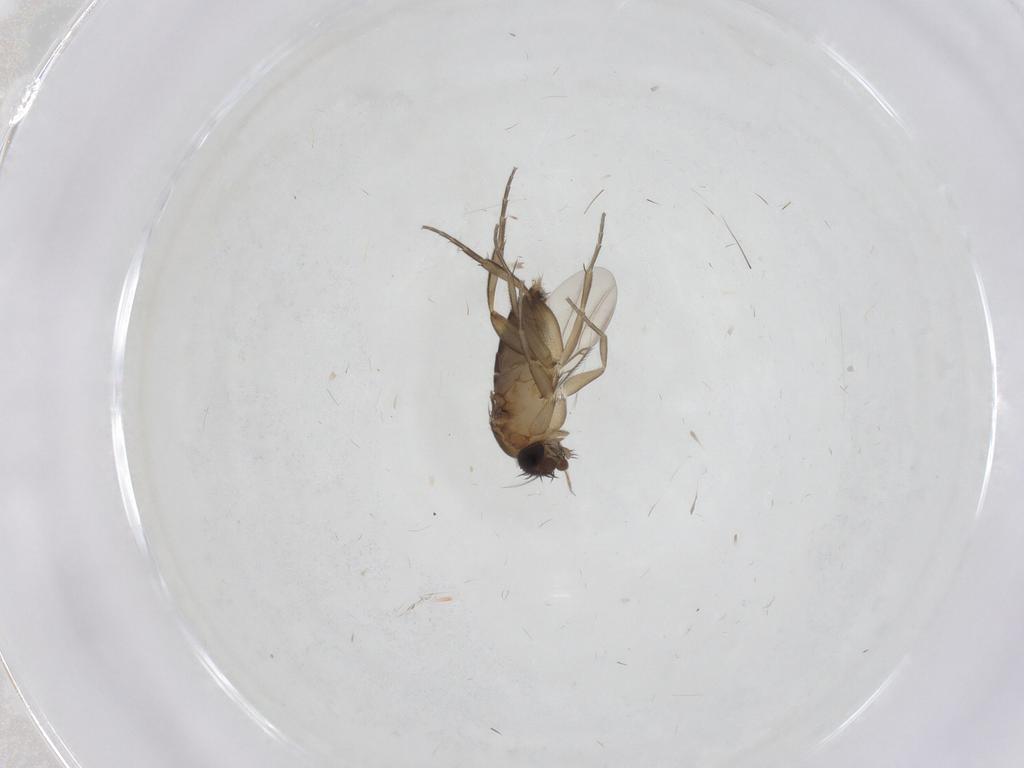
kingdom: Animalia
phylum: Arthropoda
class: Insecta
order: Diptera
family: Phoridae
